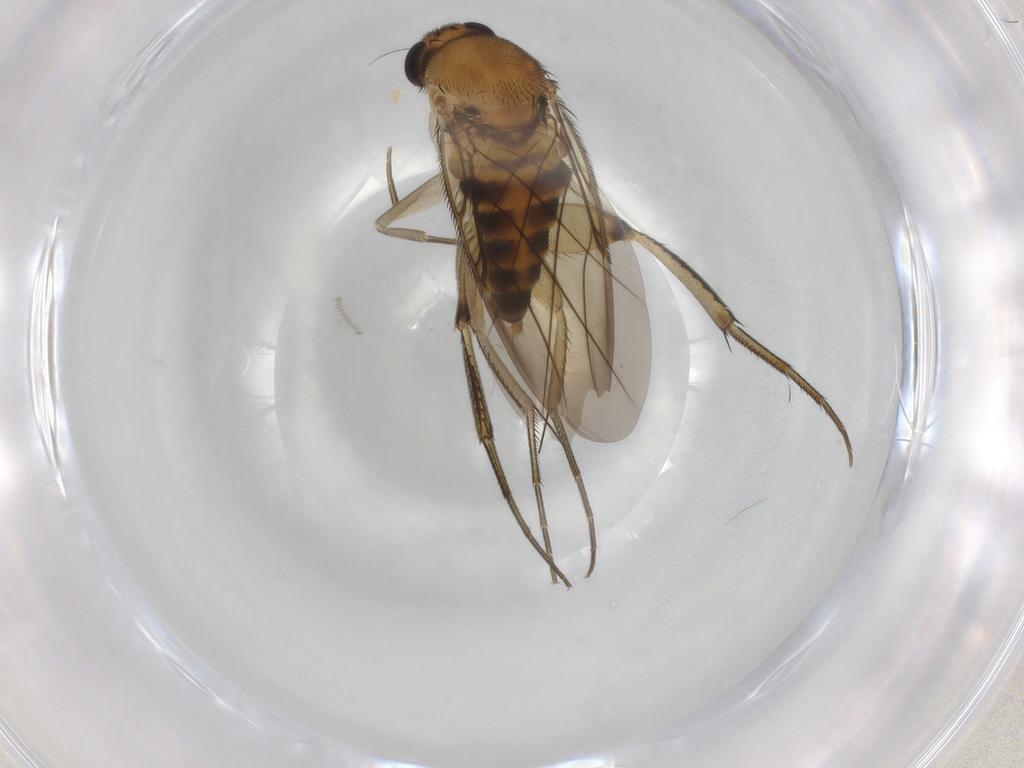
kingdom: Animalia
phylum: Arthropoda
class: Insecta
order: Diptera
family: Phoridae
